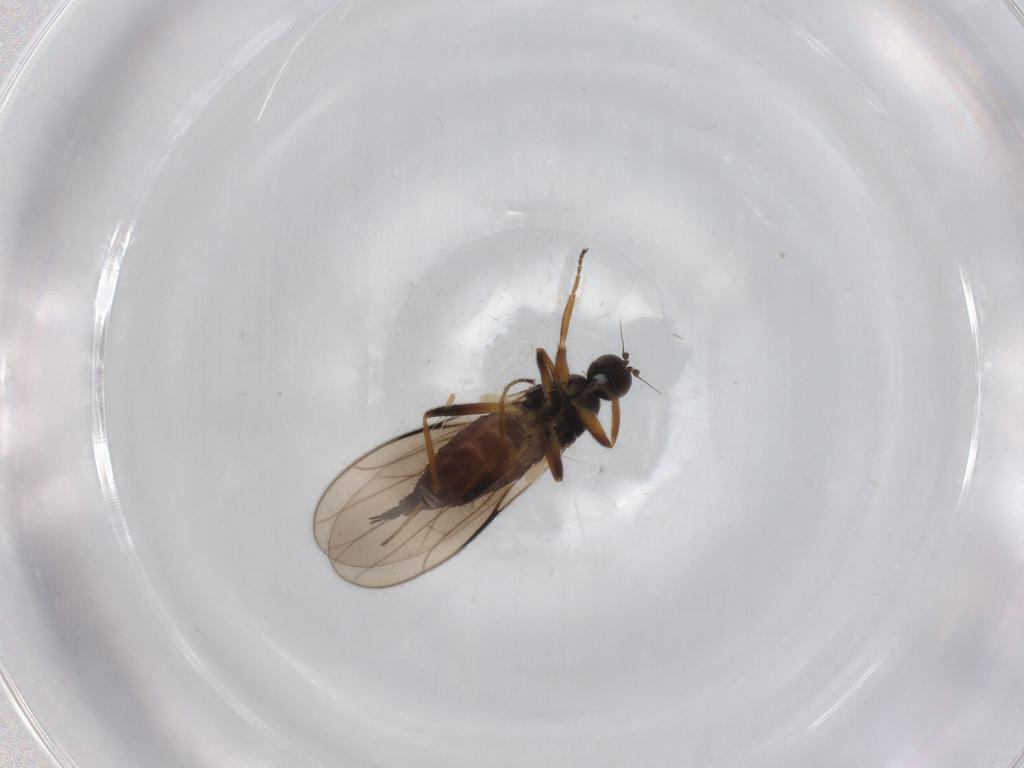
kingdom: Animalia
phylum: Arthropoda
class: Insecta
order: Diptera
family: Hybotidae
